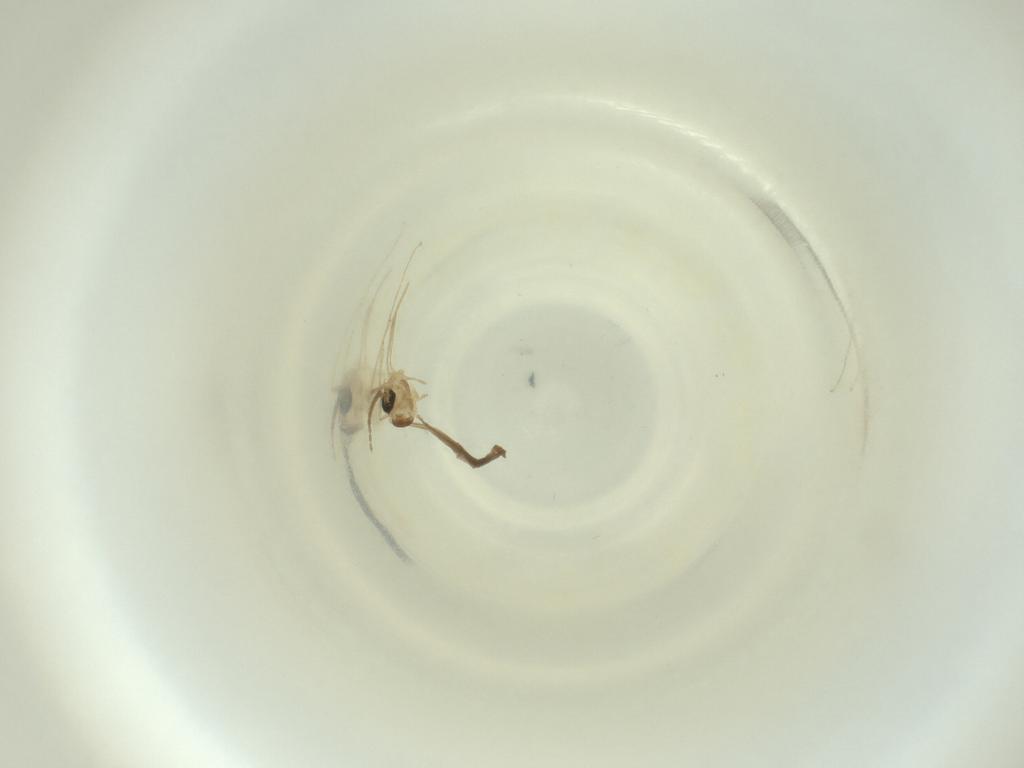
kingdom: Animalia
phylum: Arthropoda
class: Insecta
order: Diptera
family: Cecidomyiidae
